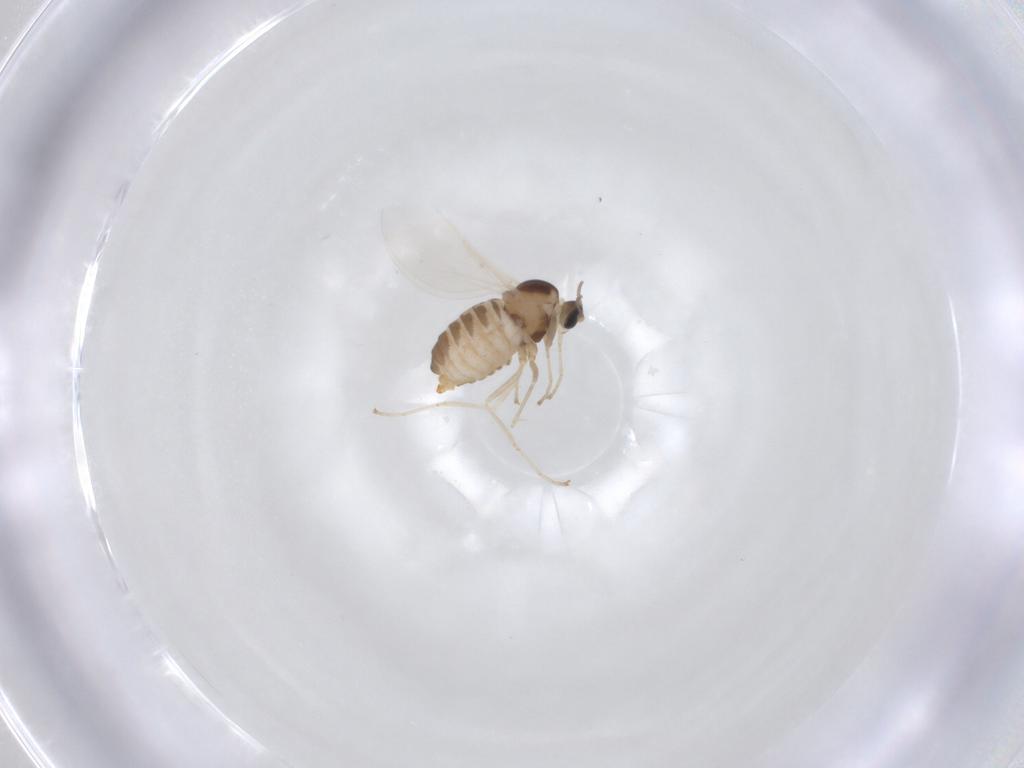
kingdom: Animalia
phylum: Arthropoda
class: Insecta
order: Diptera
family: Cecidomyiidae
